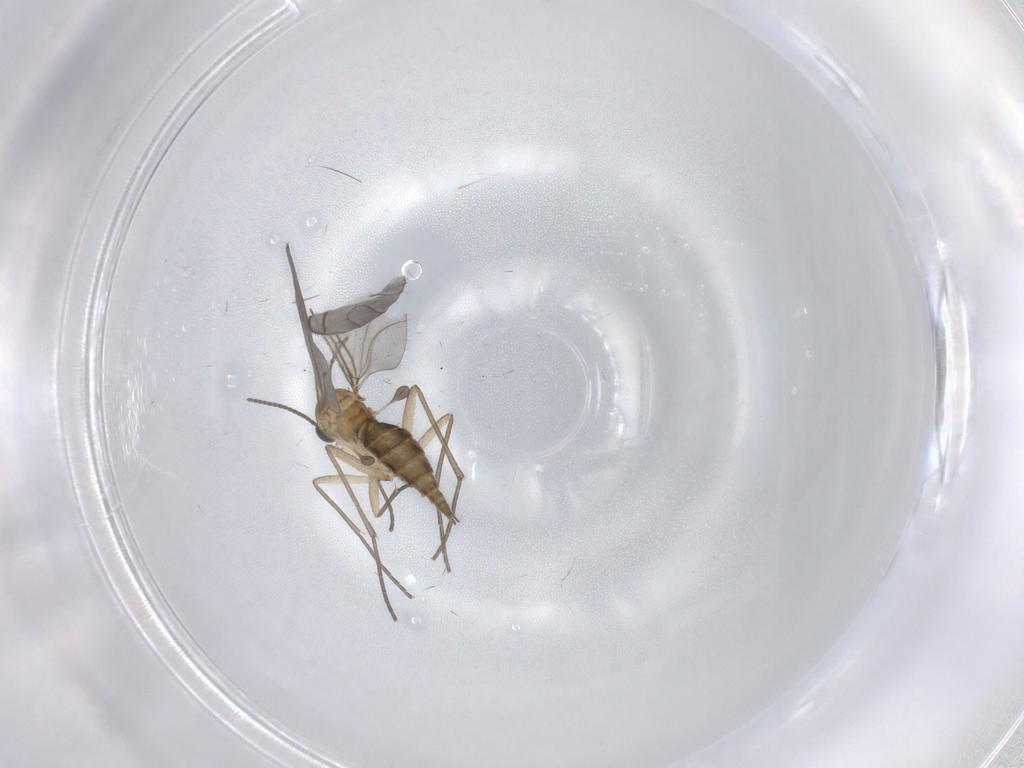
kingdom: Animalia
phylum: Arthropoda
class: Insecta
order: Diptera
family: Sciaridae
